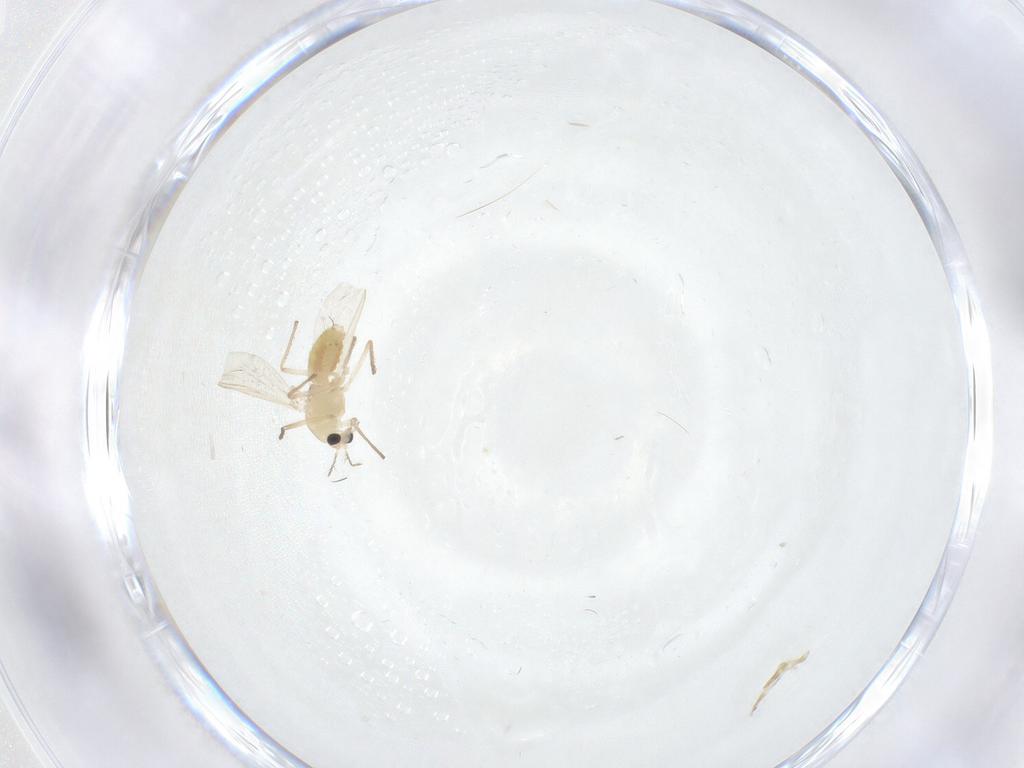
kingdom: Animalia
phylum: Arthropoda
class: Insecta
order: Diptera
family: Chironomidae
